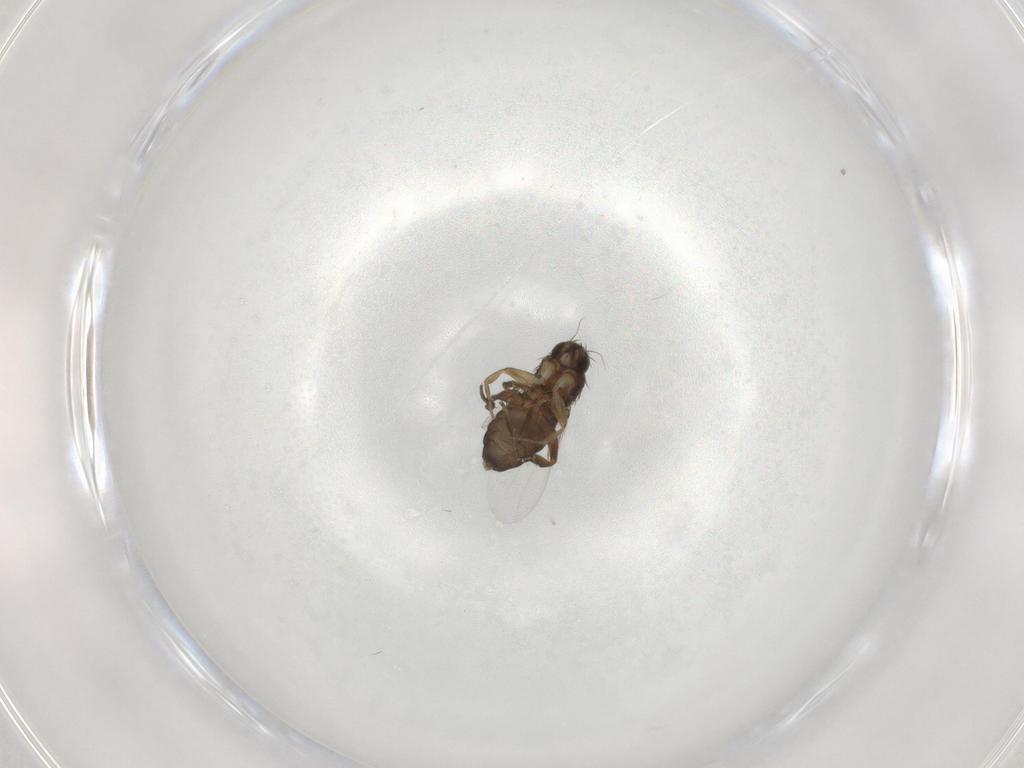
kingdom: Animalia
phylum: Arthropoda
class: Insecta
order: Diptera
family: Phoridae
